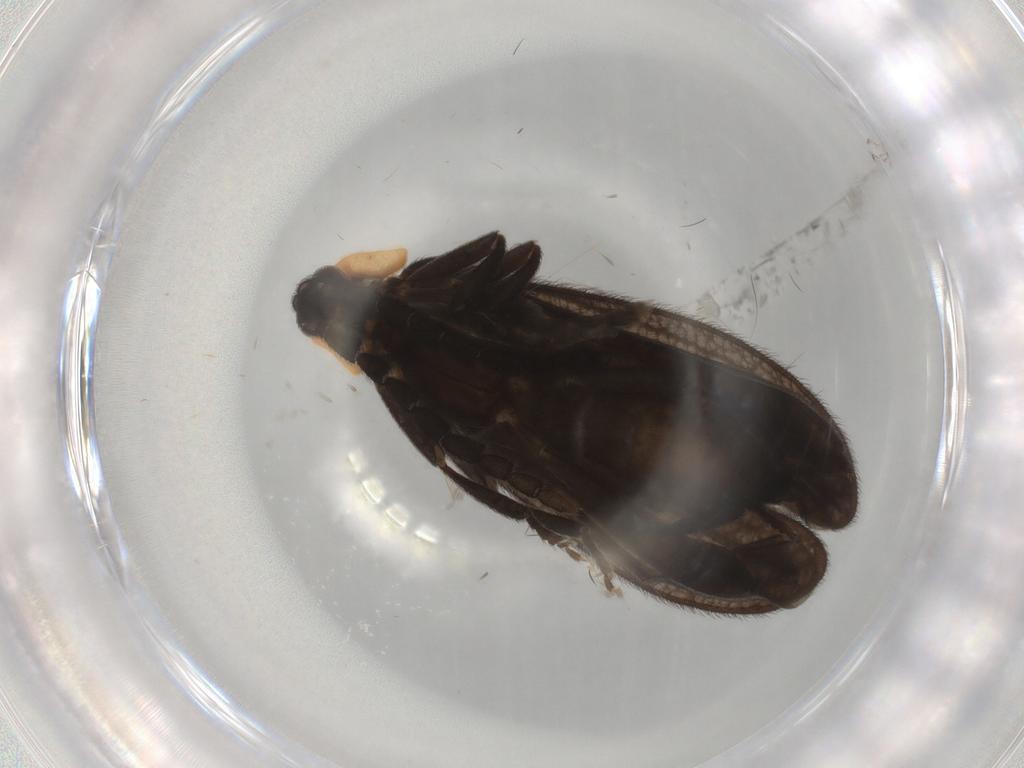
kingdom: Animalia
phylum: Arthropoda
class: Insecta
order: Coleoptera
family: Lycidae
